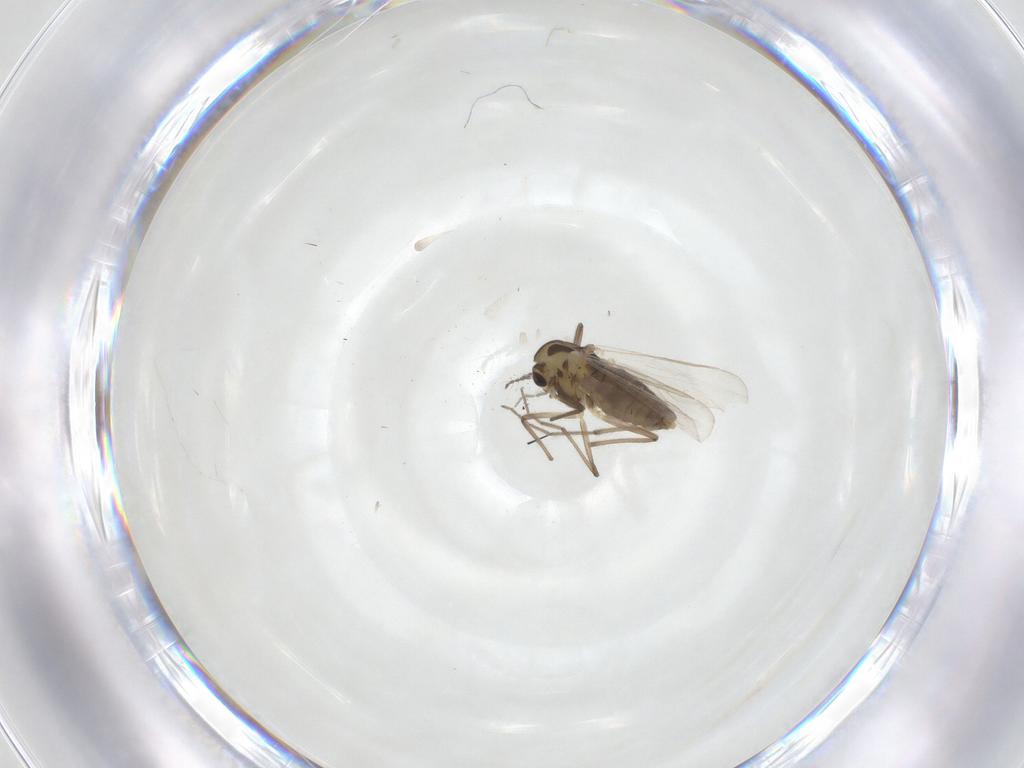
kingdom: Animalia
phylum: Arthropoda
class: Insecta
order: Diptera
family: Chironomidae
